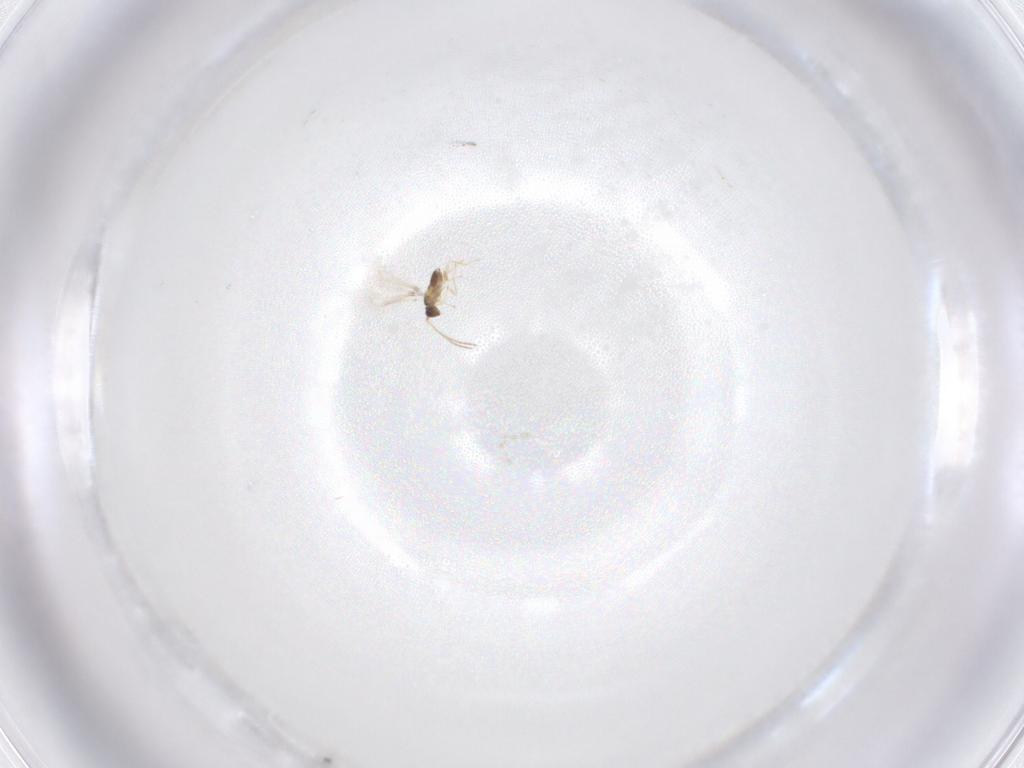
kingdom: Animalia
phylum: Arthropoda
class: Insecta
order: Hymenoptera
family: Mymaridae
